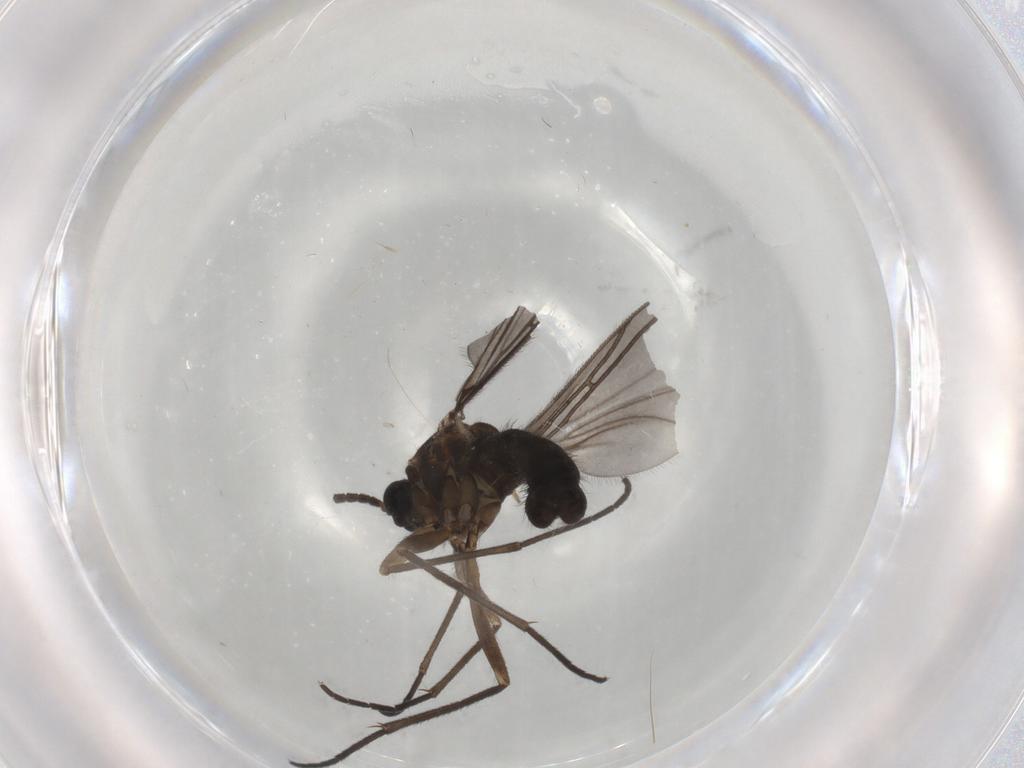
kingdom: Animalia
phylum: Arthropoda
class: Insecta
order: Diptera
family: Sciaridae
